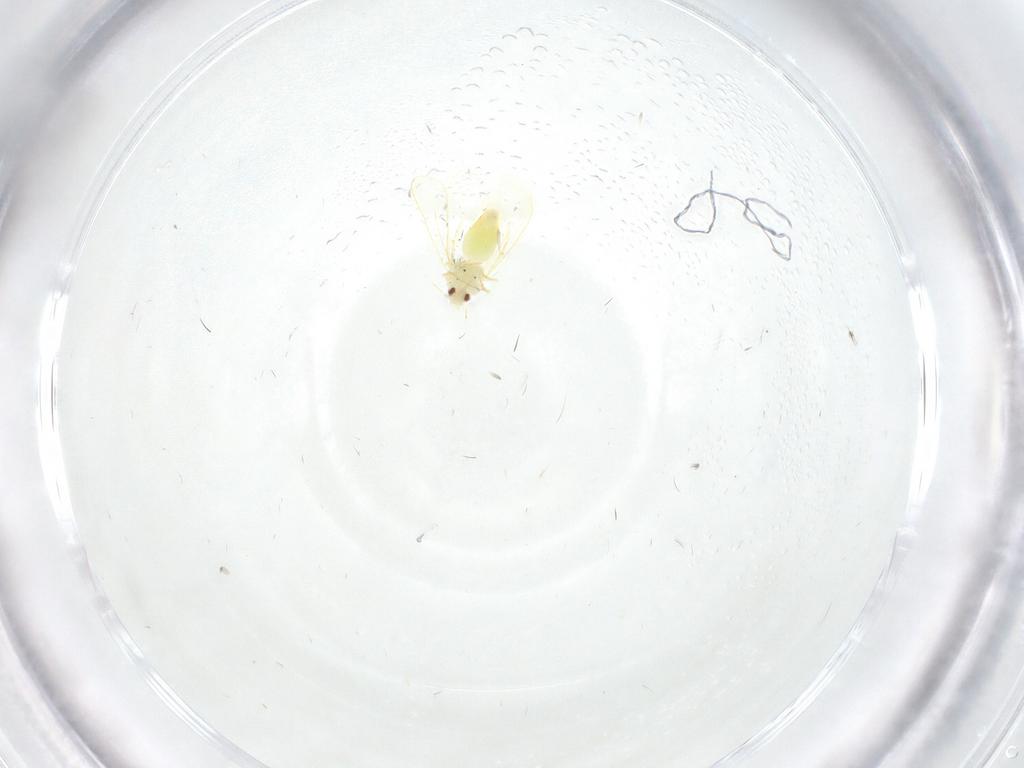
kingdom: Animalia
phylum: Arthropoda
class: Insecta
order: Hemiptera
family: Aleyrodidae
